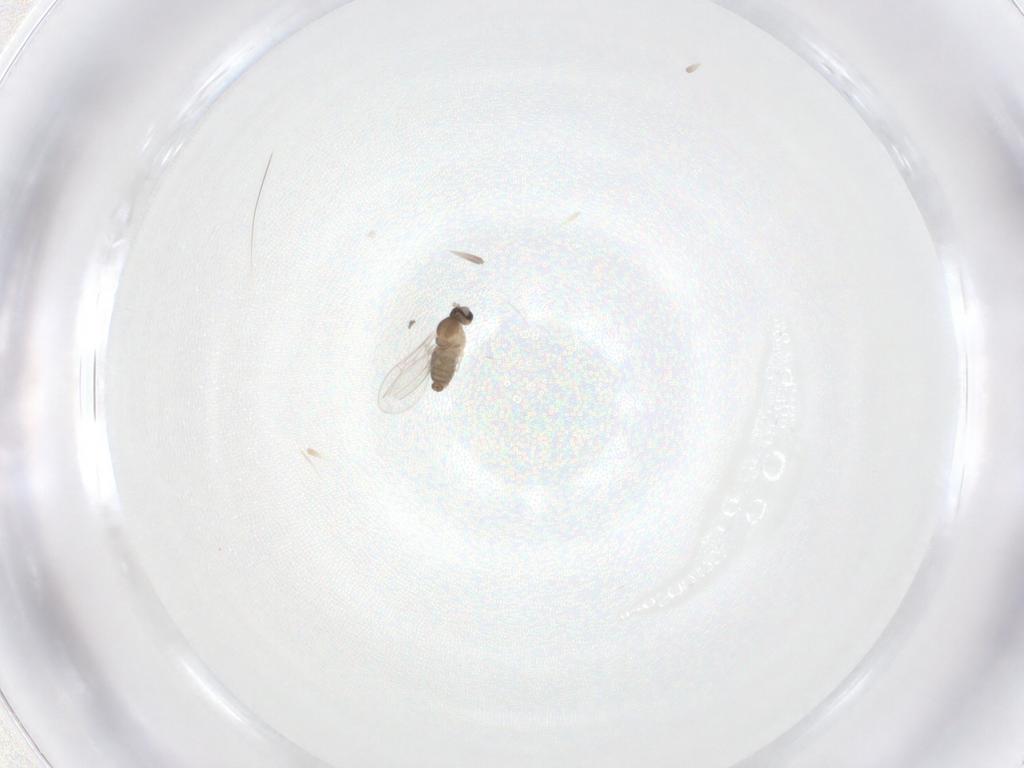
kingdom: Animalia
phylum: Arthropoda
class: Insecta
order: Diptera
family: Cecidomyiidae
